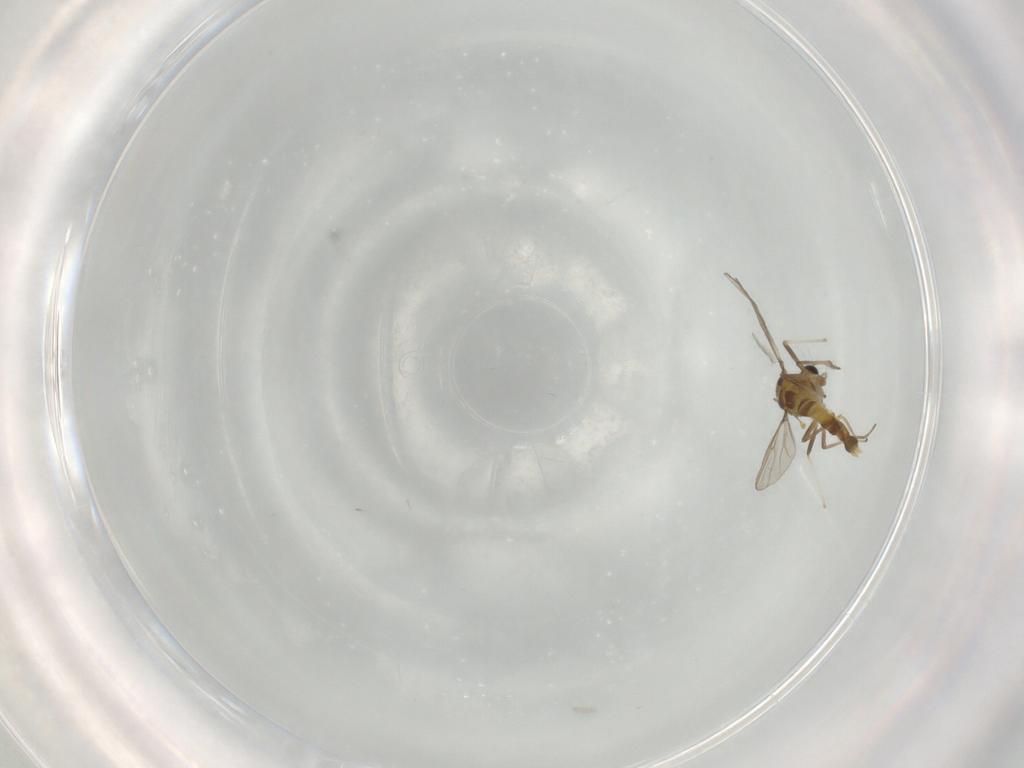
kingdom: Animalia
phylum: Arthropoda
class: Insecta
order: Diptera
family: Chironomidae
